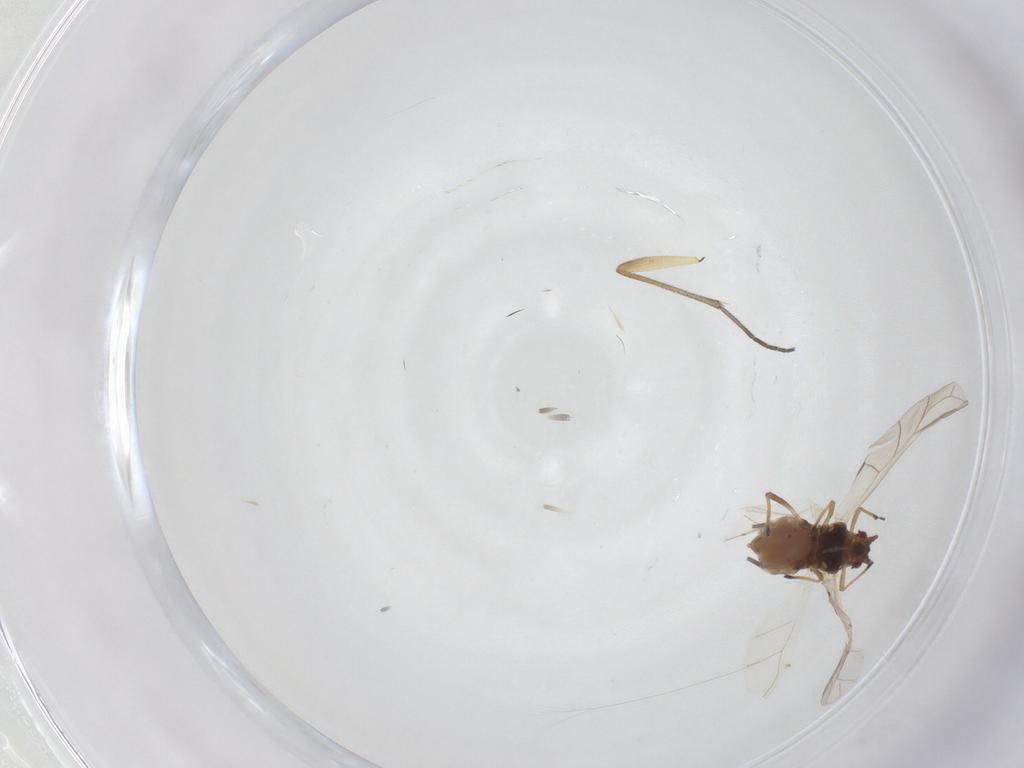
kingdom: Animalia
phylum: Arthropoda
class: Insecta
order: Hemiptera
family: Aphididae
